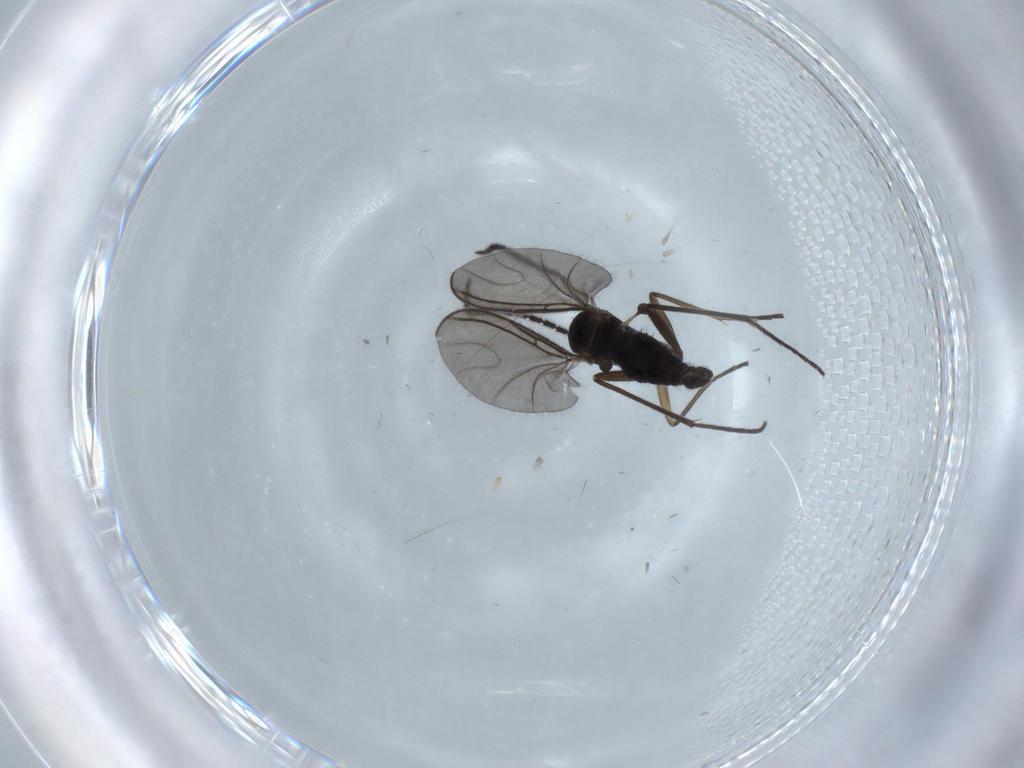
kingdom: Animalia
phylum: Arthropoda
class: Insecta
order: Diptera
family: Sciaridae
